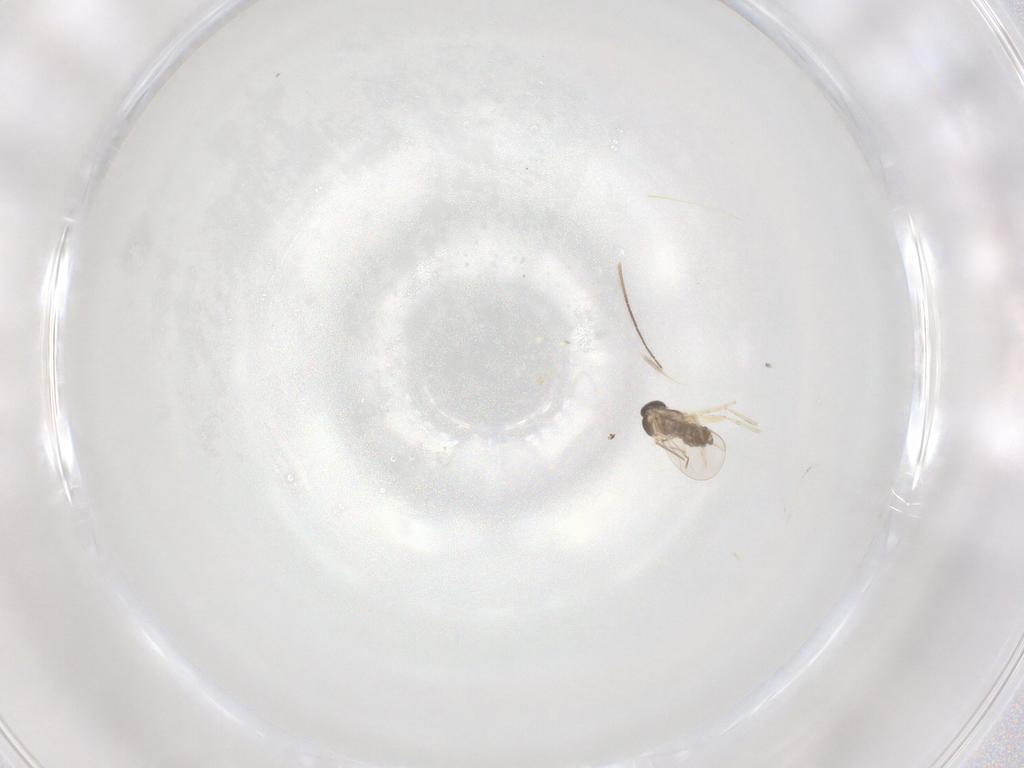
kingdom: Animalia
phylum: Arthropoda
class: Insecta
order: Diptera
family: Cecidomyiidae
